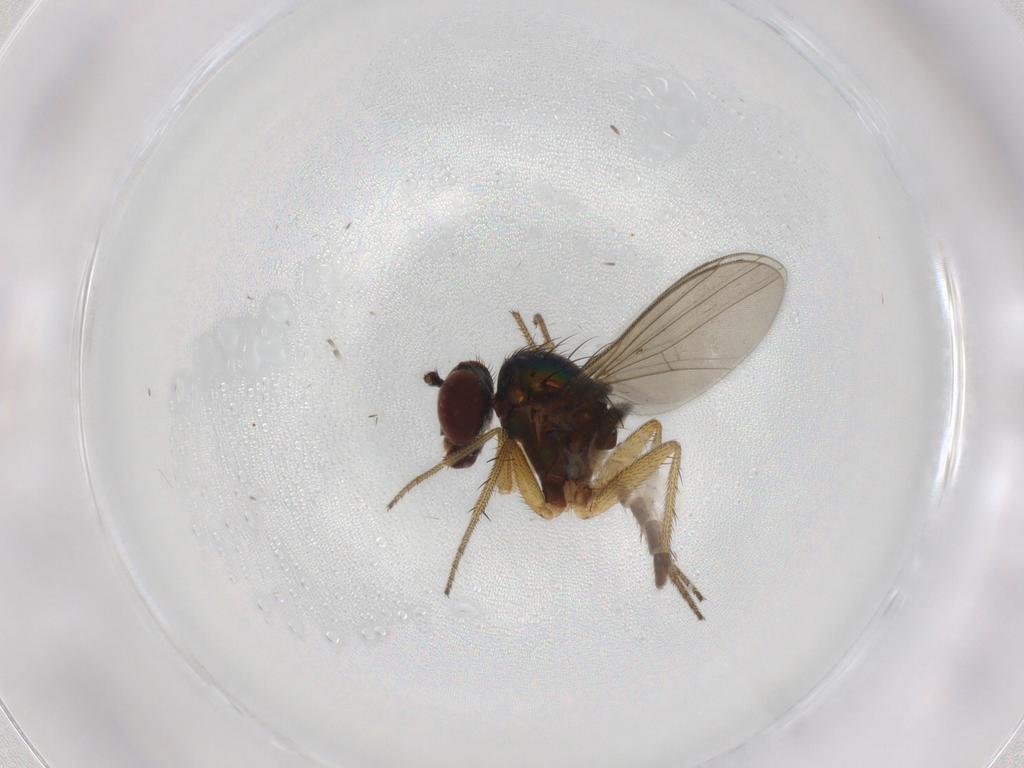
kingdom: Animalia
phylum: Arthropoda
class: Insecta
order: Diptera
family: Chironomidae
